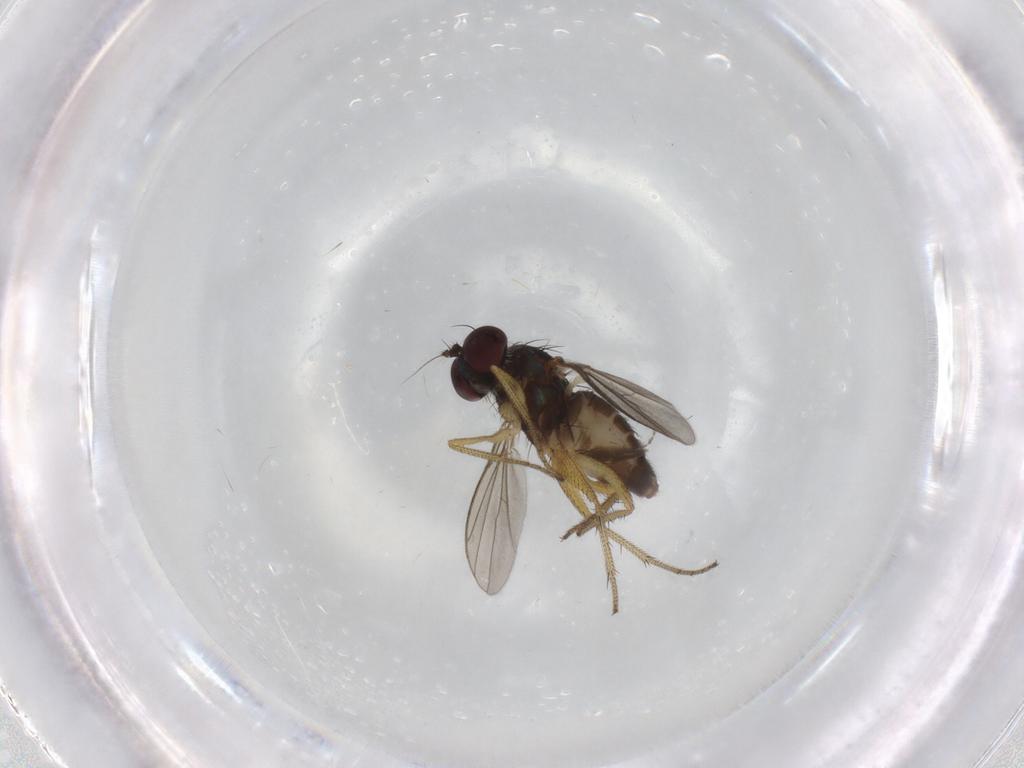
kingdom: Animalia
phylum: Arthropoda
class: Insecta
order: Diptera
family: Dolichopodidae
